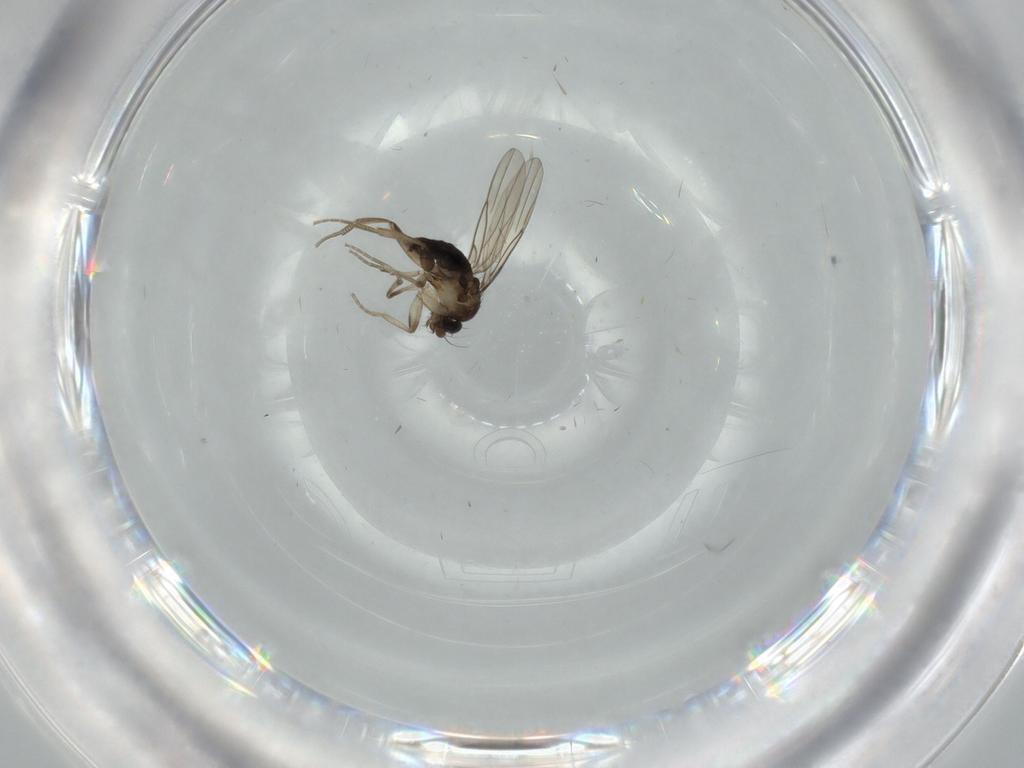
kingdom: Animalia
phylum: Arthropoda
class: Insecta
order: Diptera
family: Phoridae
